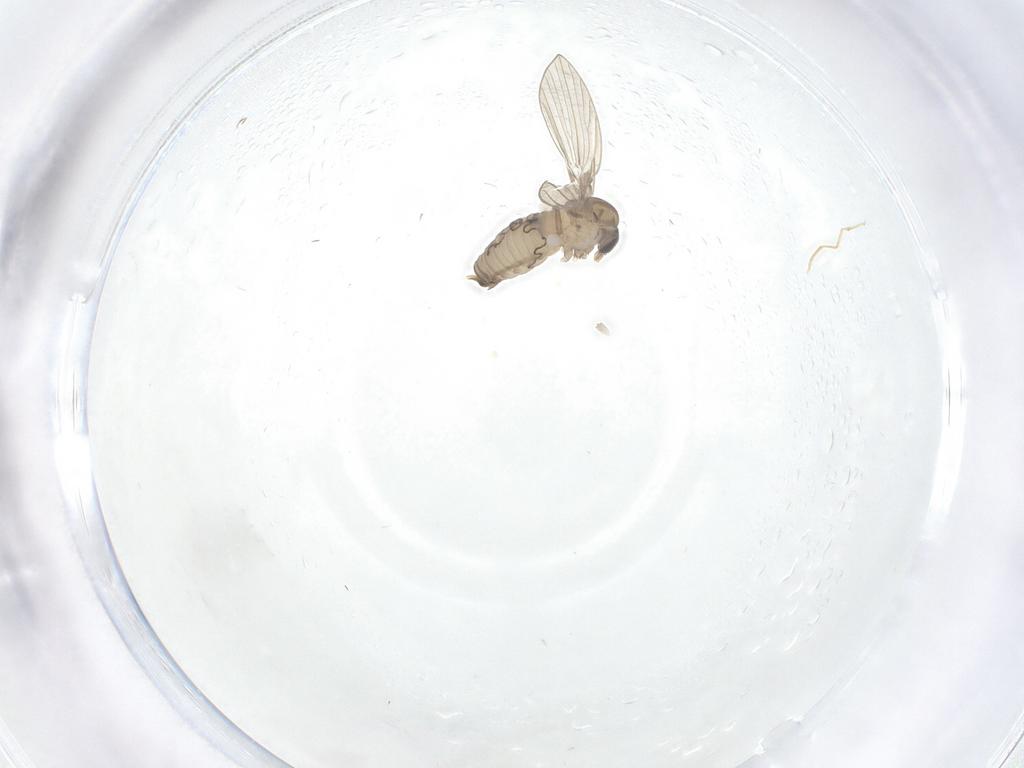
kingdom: Animalia
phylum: Arthropoda
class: Insecta
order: Diptera
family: Psychodidae
